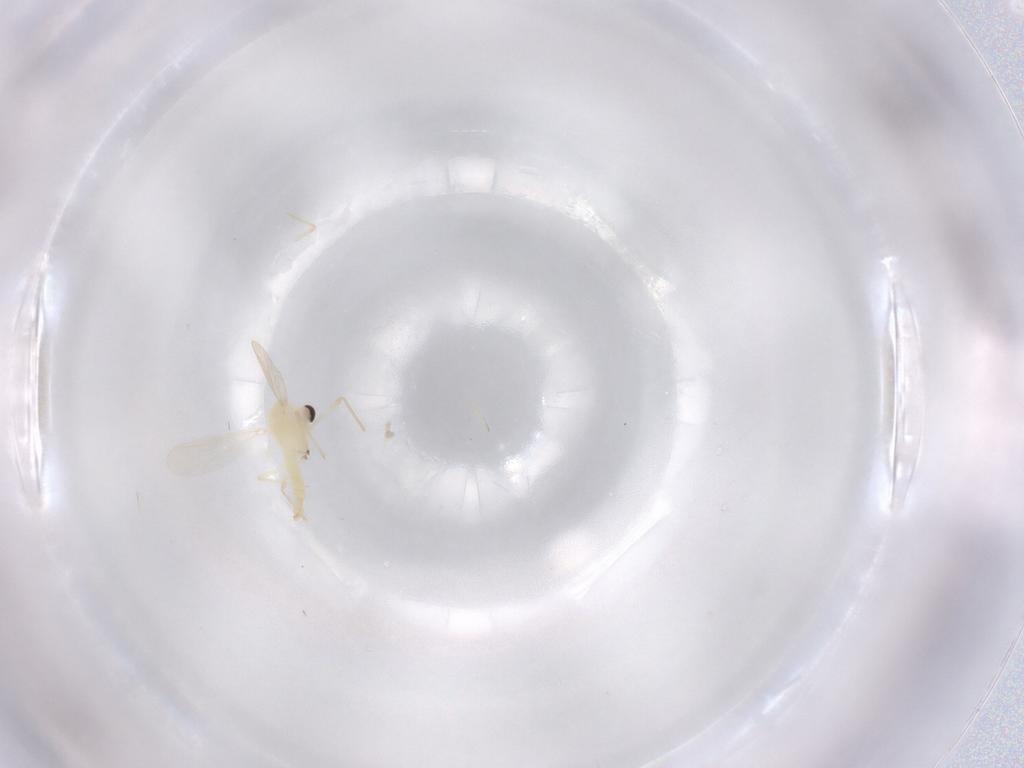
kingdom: Animalia
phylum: Arthropoda
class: Insecta
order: Diptera
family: Chironomidae
